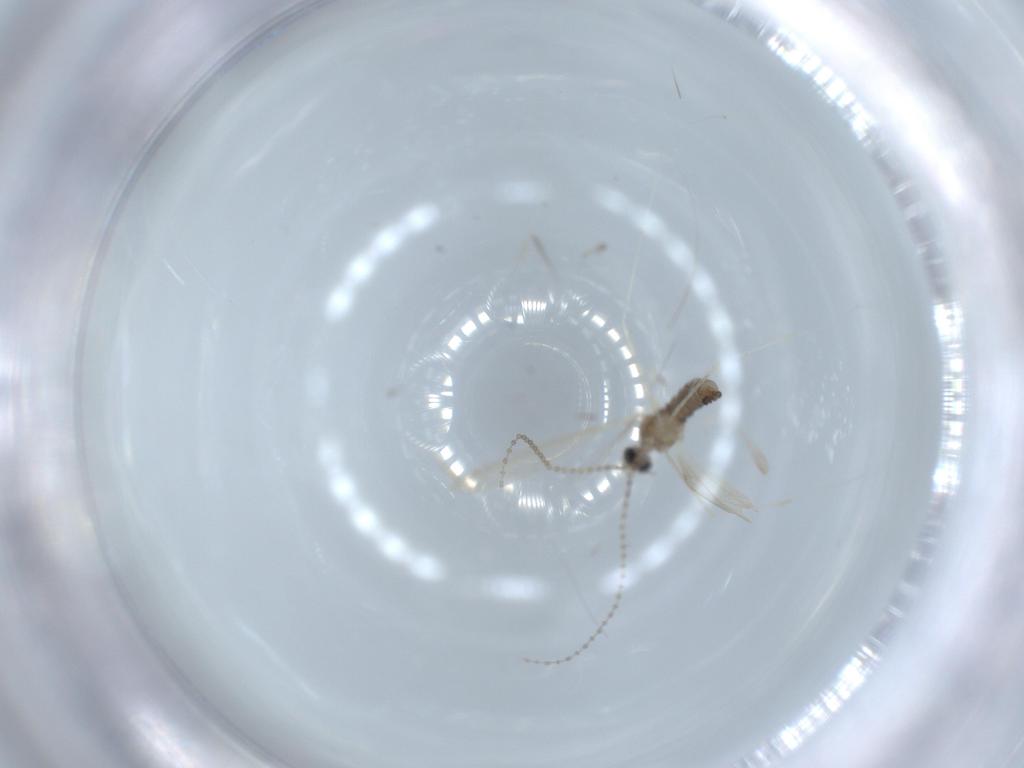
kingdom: Animalia
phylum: Arthropoda
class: Insecta
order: Diptera
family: Cecidomyiidae
